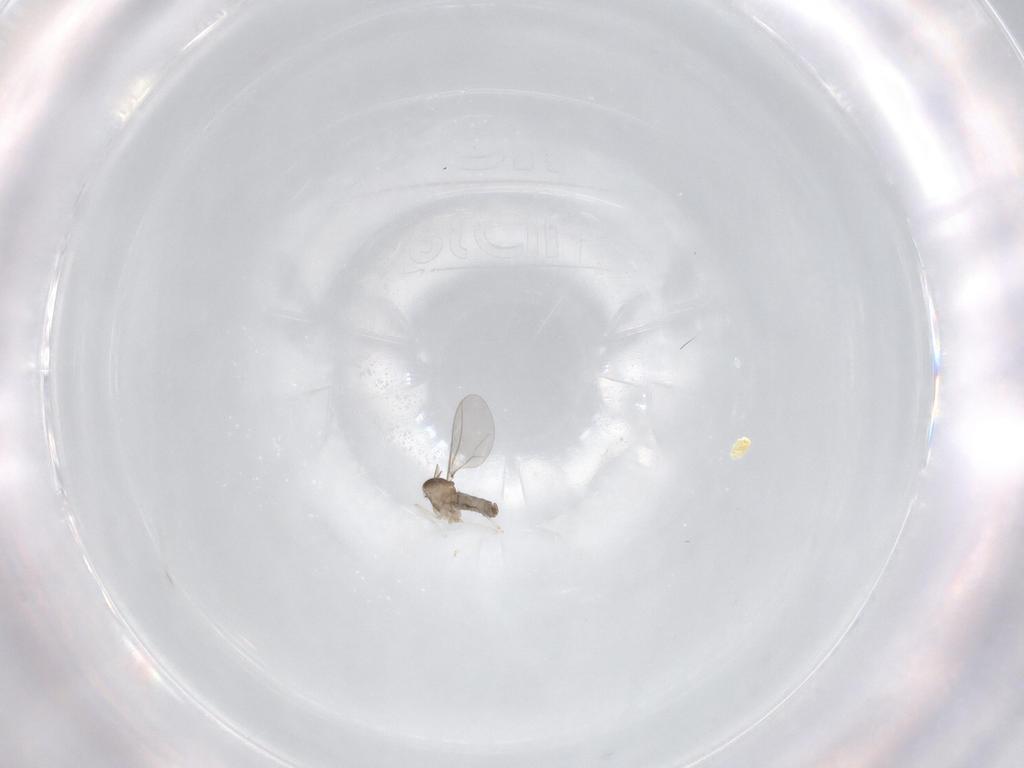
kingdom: Animalia
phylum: Arthropoda
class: Insecta
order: Diptera
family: Cecidomyiidae
